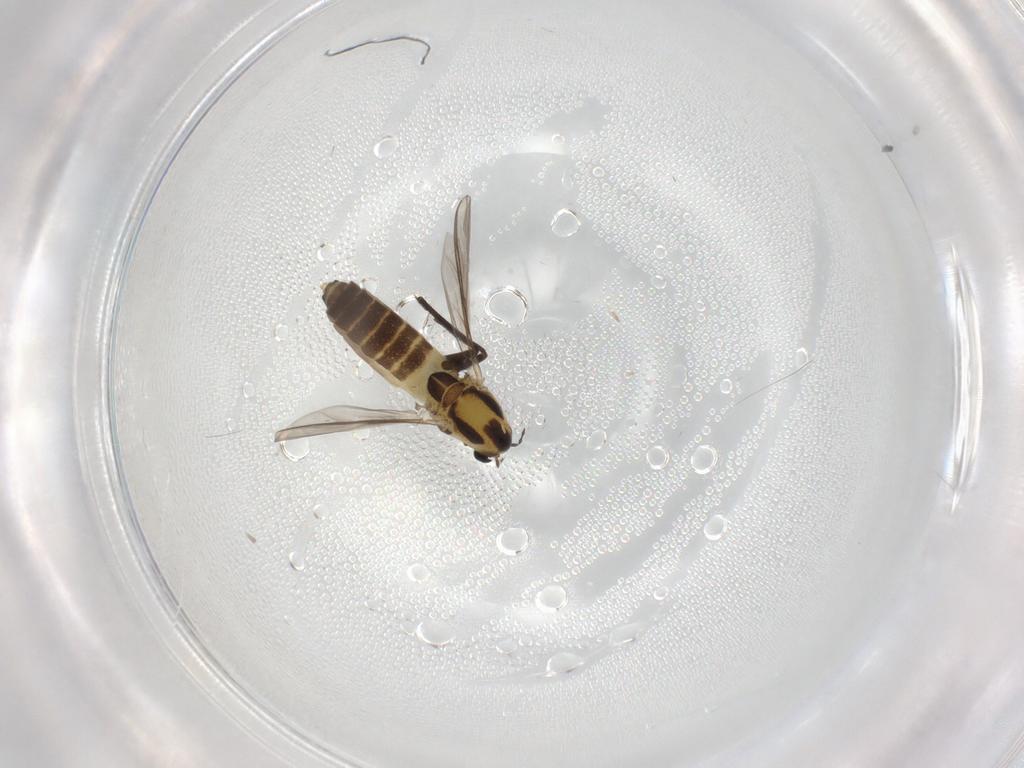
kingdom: Animalia
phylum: Arthropoda
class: Insecta
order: Diptera
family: Chironomidae
